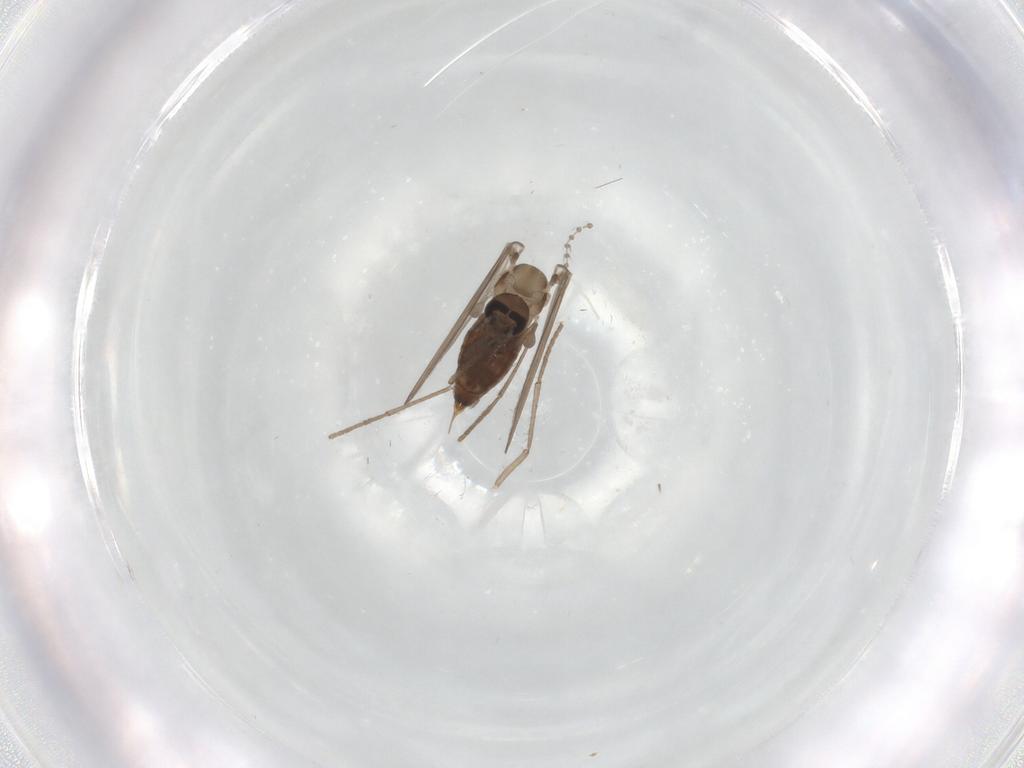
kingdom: Animalia
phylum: Arthropoda
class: Insecta
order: Diptera
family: Psychodidae
